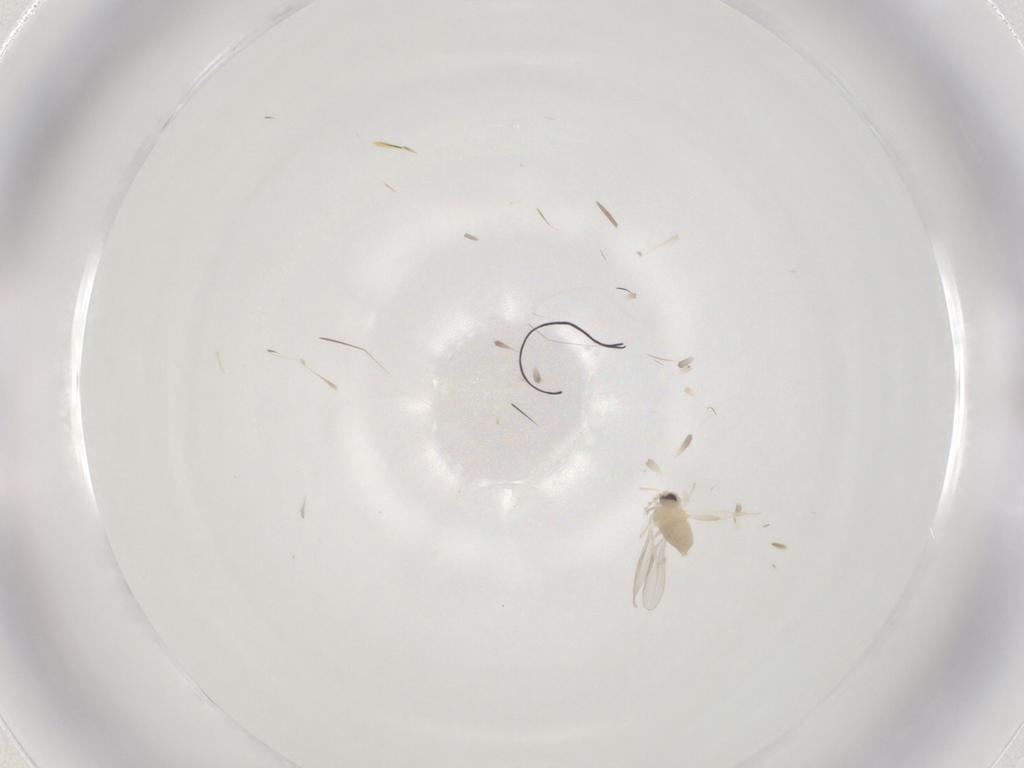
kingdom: Animalia
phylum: Arthropoda
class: Insecta
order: Diptera
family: Cecidomyiidae
